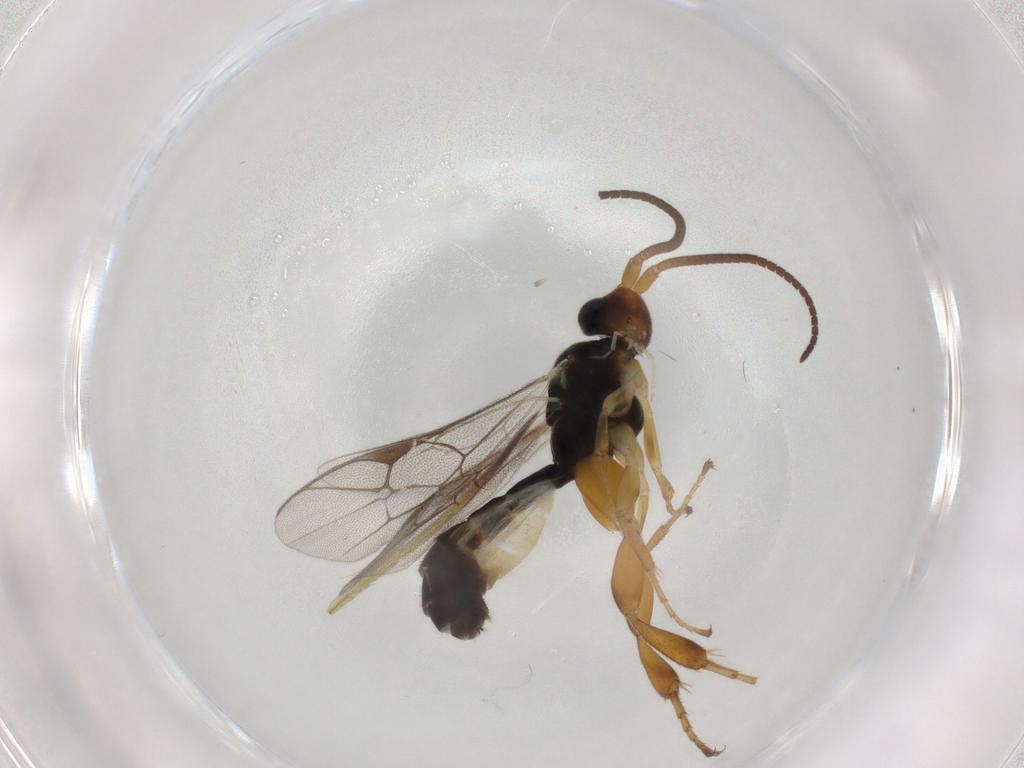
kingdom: Animalia
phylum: Arthropoda
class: Insecta
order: Hymenoptera
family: Ichneumonidae
